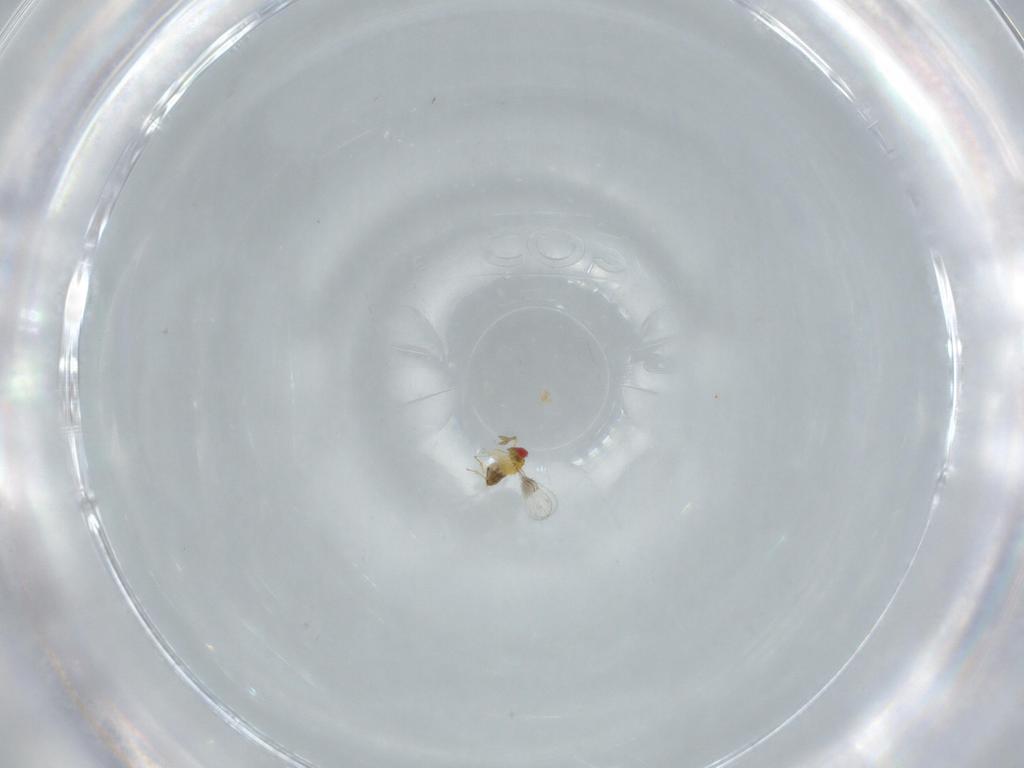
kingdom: Animalia
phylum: Arthropoda
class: Insecta
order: Hymenoptera
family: Trichogrammatidae
